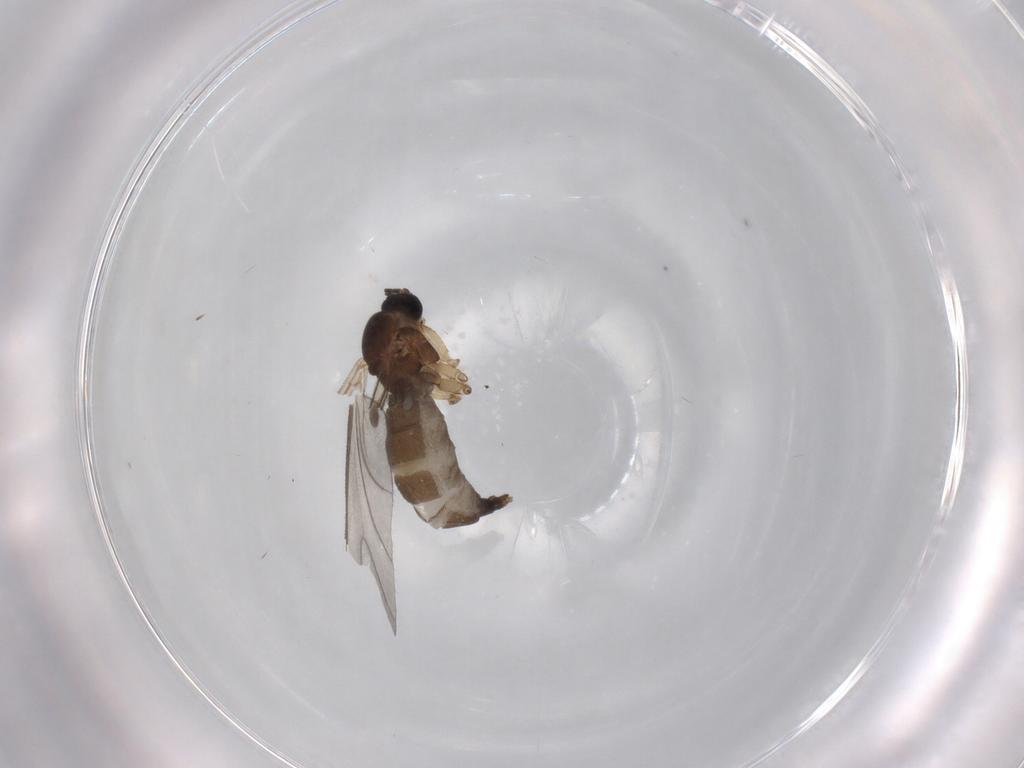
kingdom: Animalia
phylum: Arthropoda
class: Insecta
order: Diptera
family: Sciaridae
